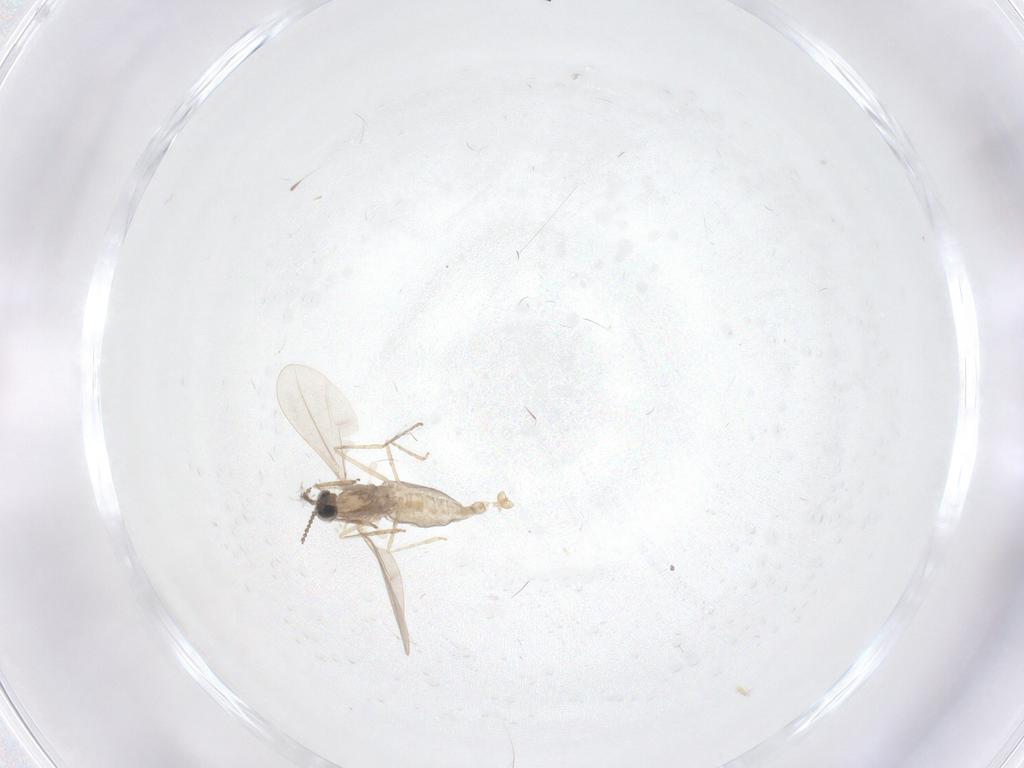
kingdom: Animalia
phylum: Arthropoda
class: Insecta
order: Diptera
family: Cecidomyiidae
